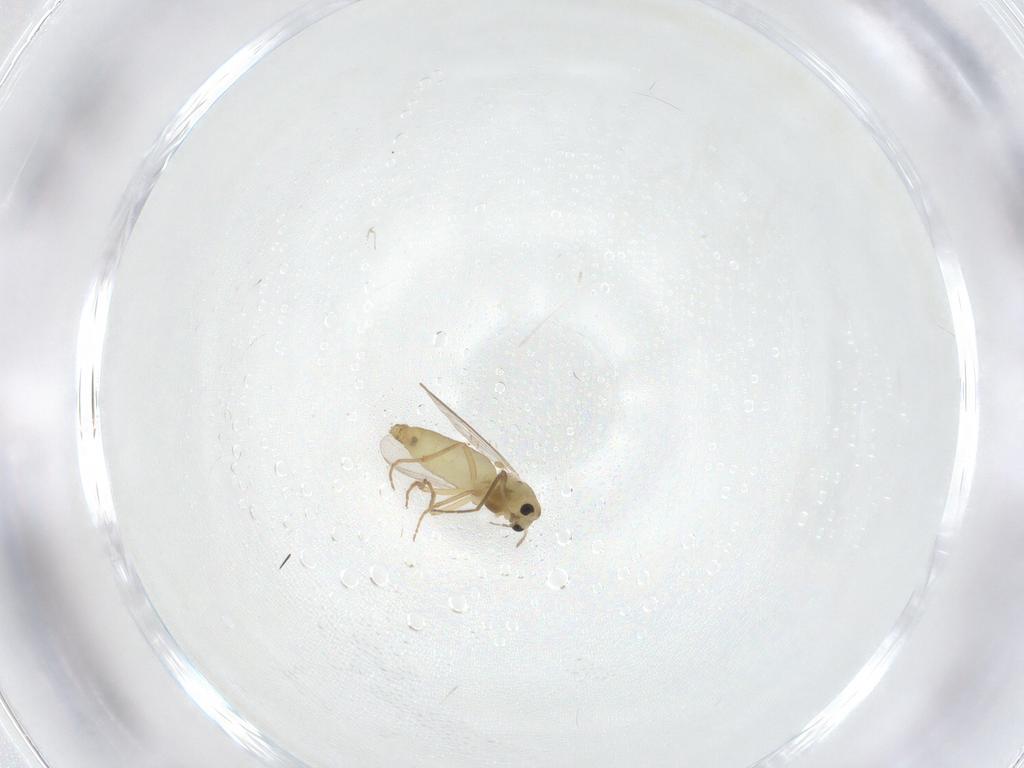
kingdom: Animalia
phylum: Arthropoda
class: Insecta
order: Diptera
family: Chironomidae
